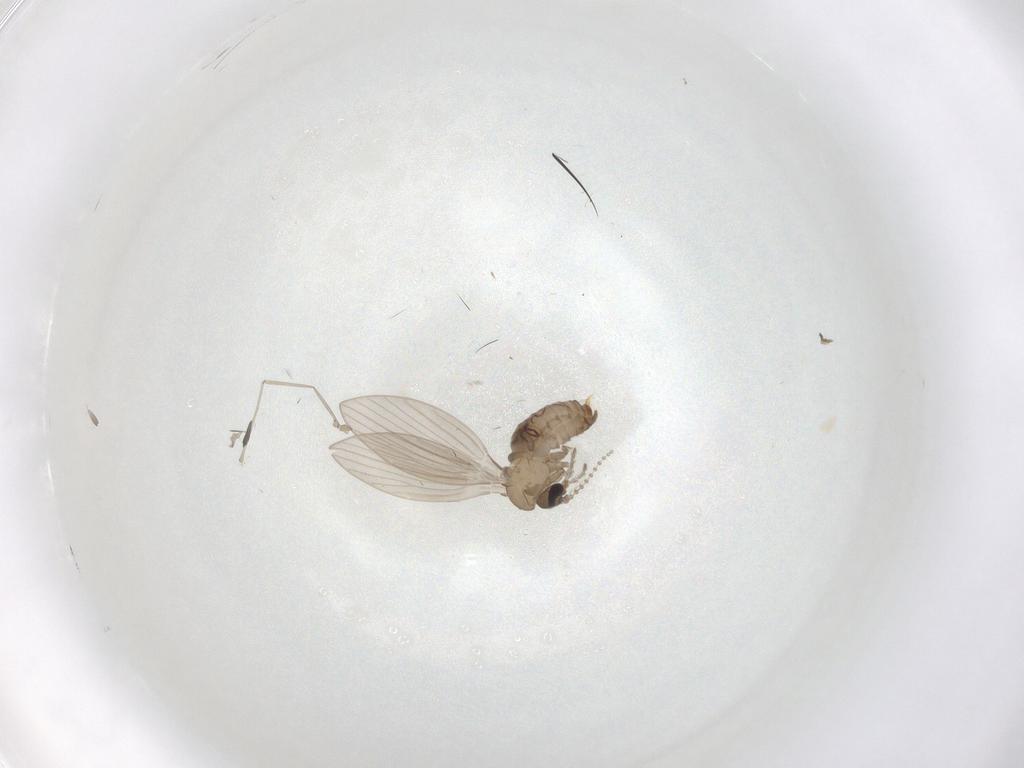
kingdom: Animalia
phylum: Arthropoda
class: Insecta
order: Diptera
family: Psychodidae
